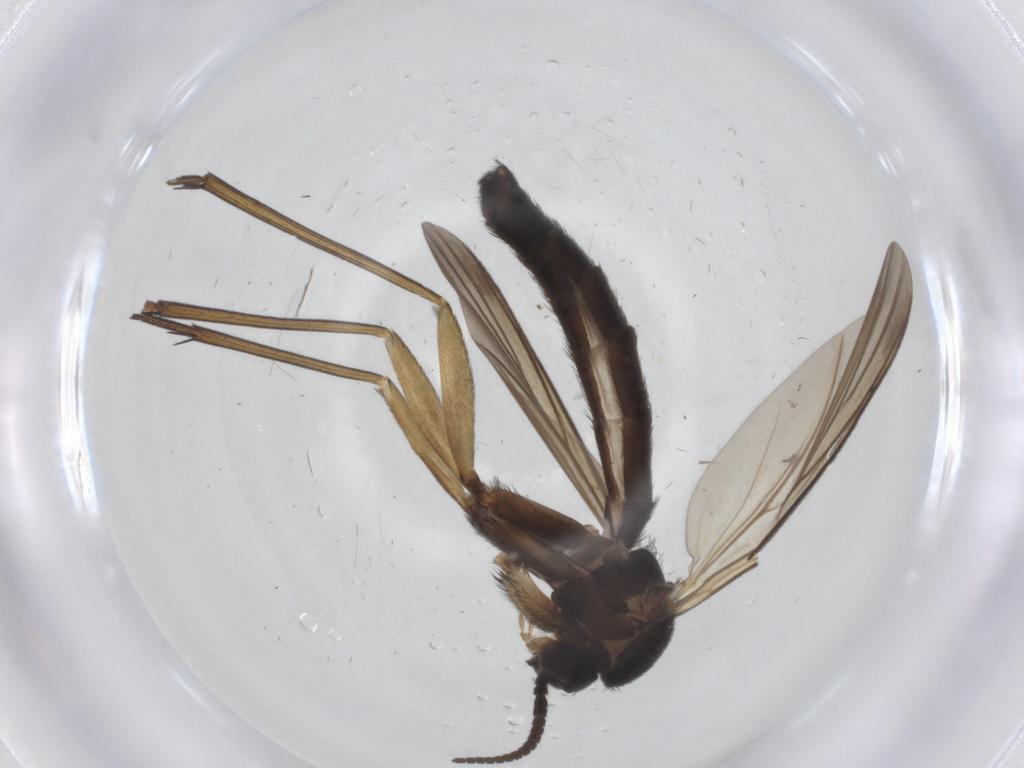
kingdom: Animalia
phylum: Arthropoda
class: Insecta
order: Diptera
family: Keroplatidae
